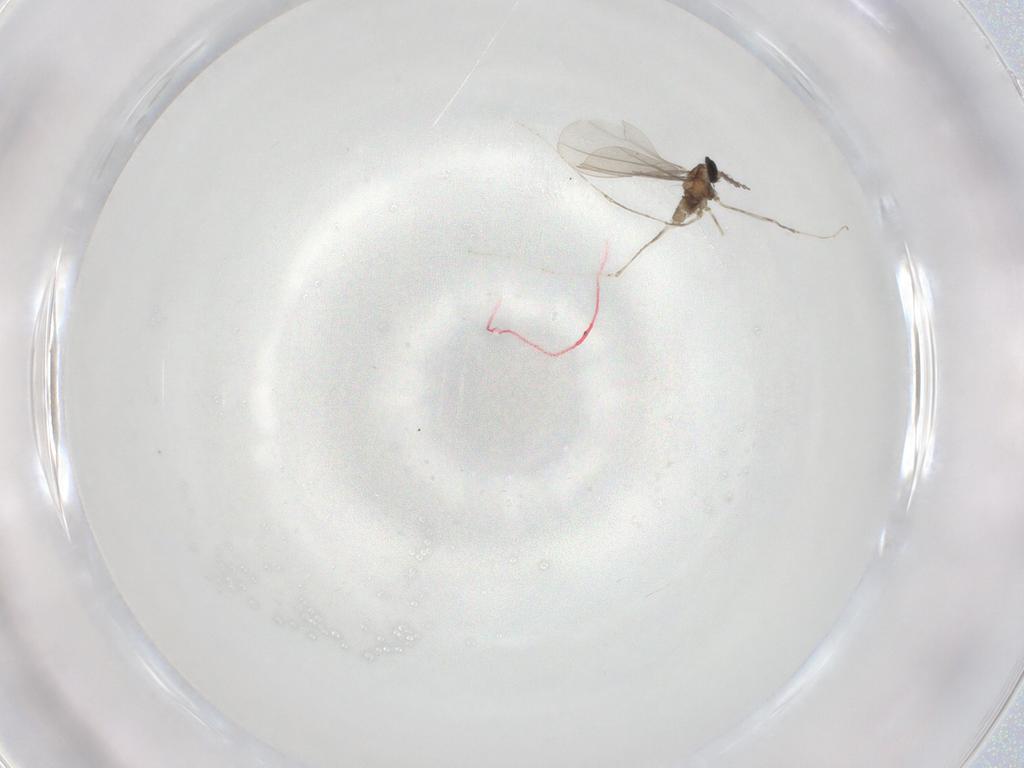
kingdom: Animalia
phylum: Arthropoda
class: Insecta
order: Diptera
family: Cecidomyiidae
